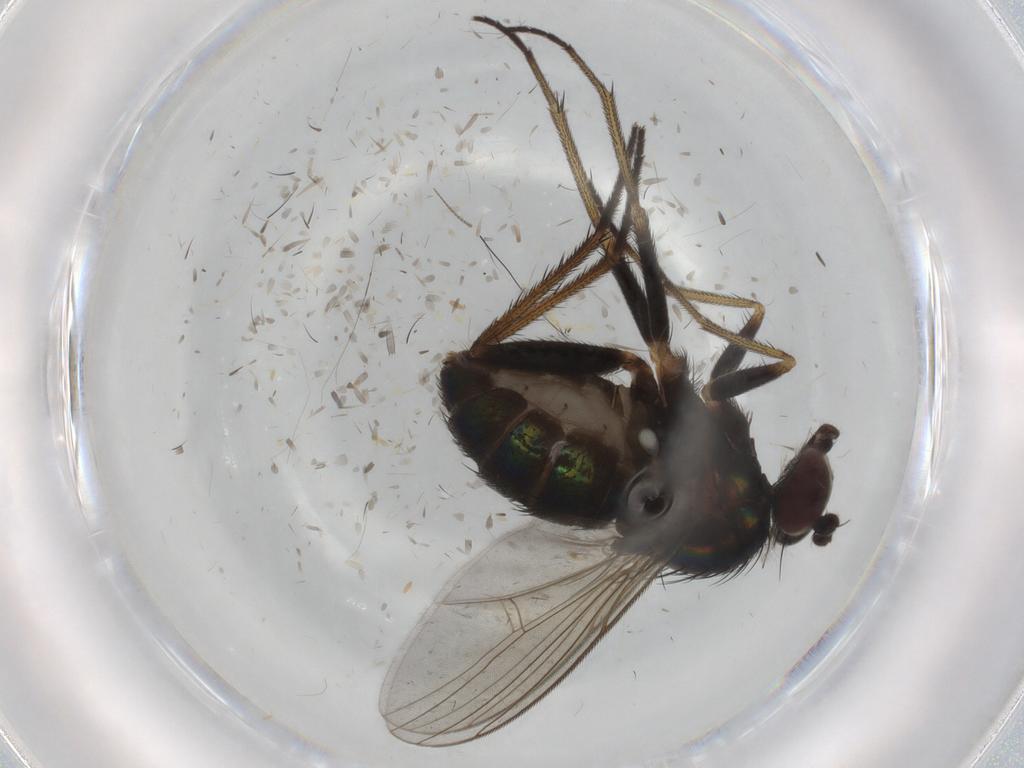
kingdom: Animalia
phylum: Arthropoda
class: Insecta
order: Diptera
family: Dolichopodidae
